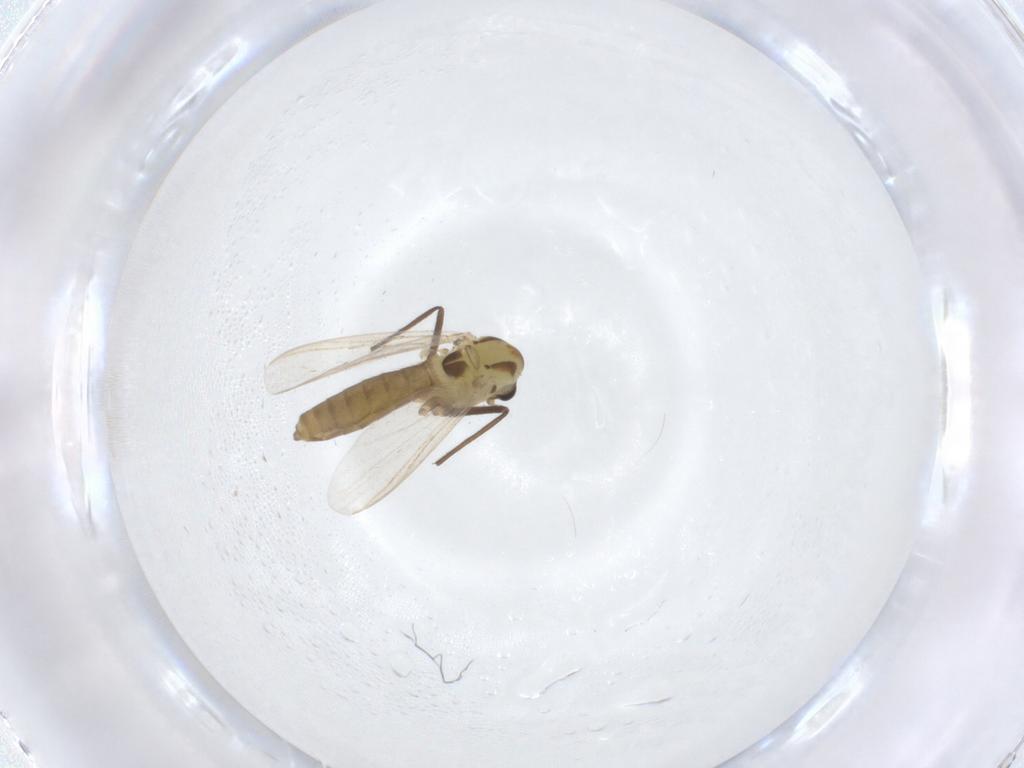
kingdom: Animalia
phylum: Arthropoda
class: Insecta
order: Diptera
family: Chironomidae
